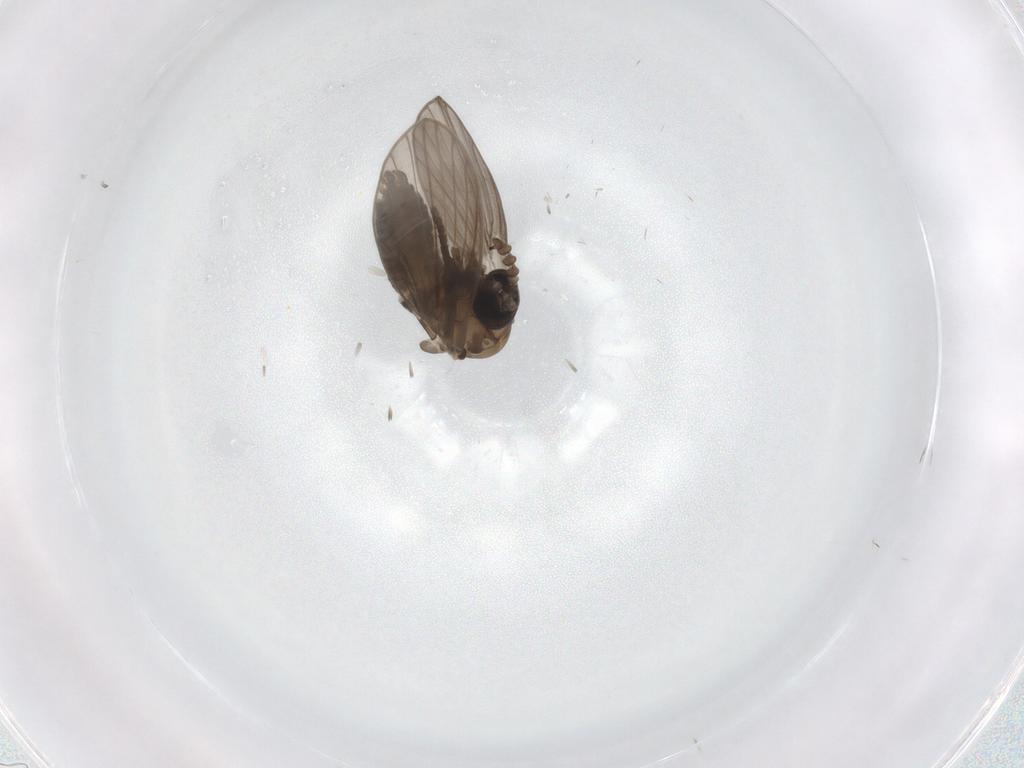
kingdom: Animalia
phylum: Arthropoda
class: Insecta
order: Diptera
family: Psychodidae
